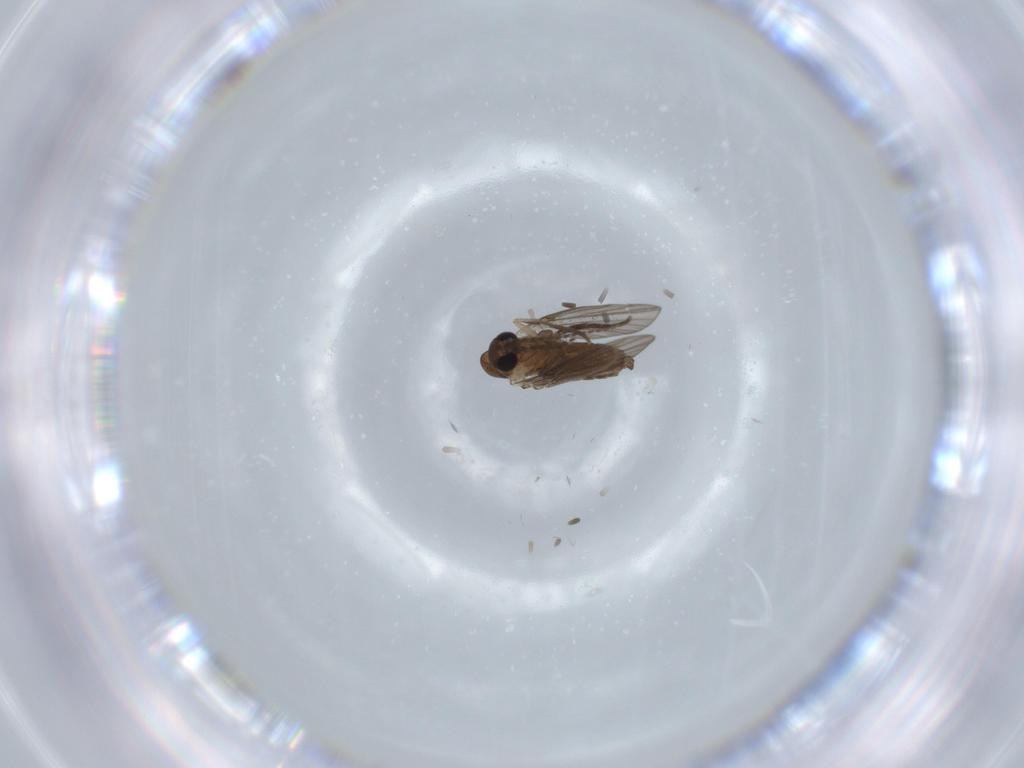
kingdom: Animalia
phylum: Arthropoda
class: Insecta
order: Diptera
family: Psychodidae
